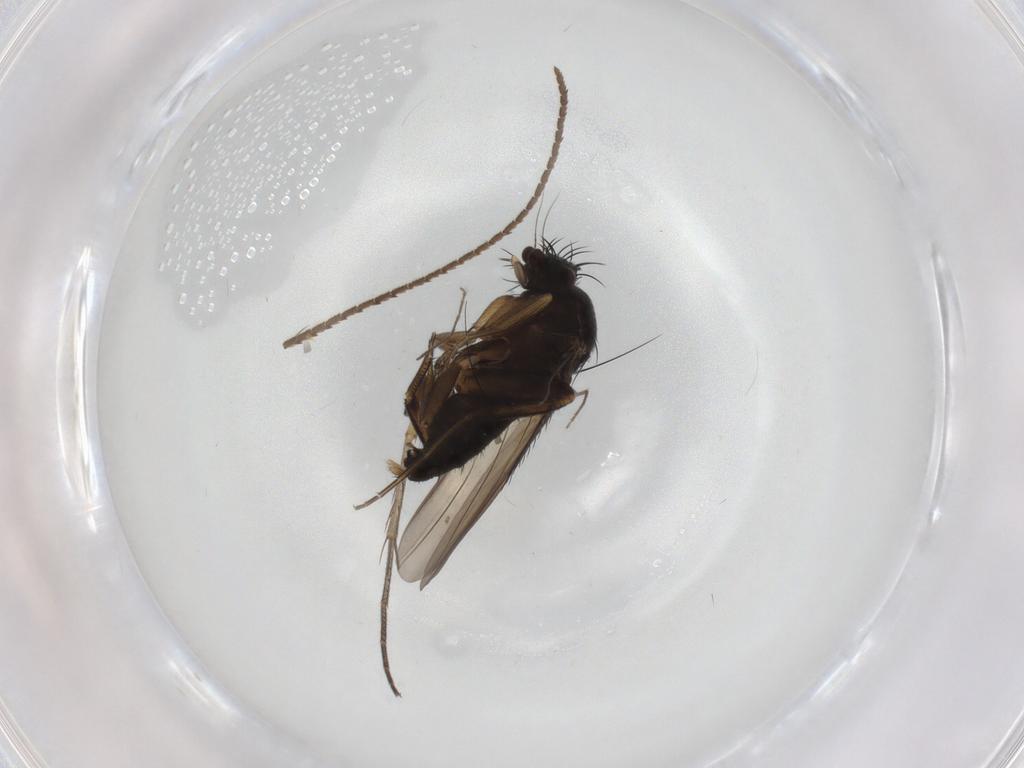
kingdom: Animalia
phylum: Arthropoda
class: Insecta
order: Diptera
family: Phoridae
